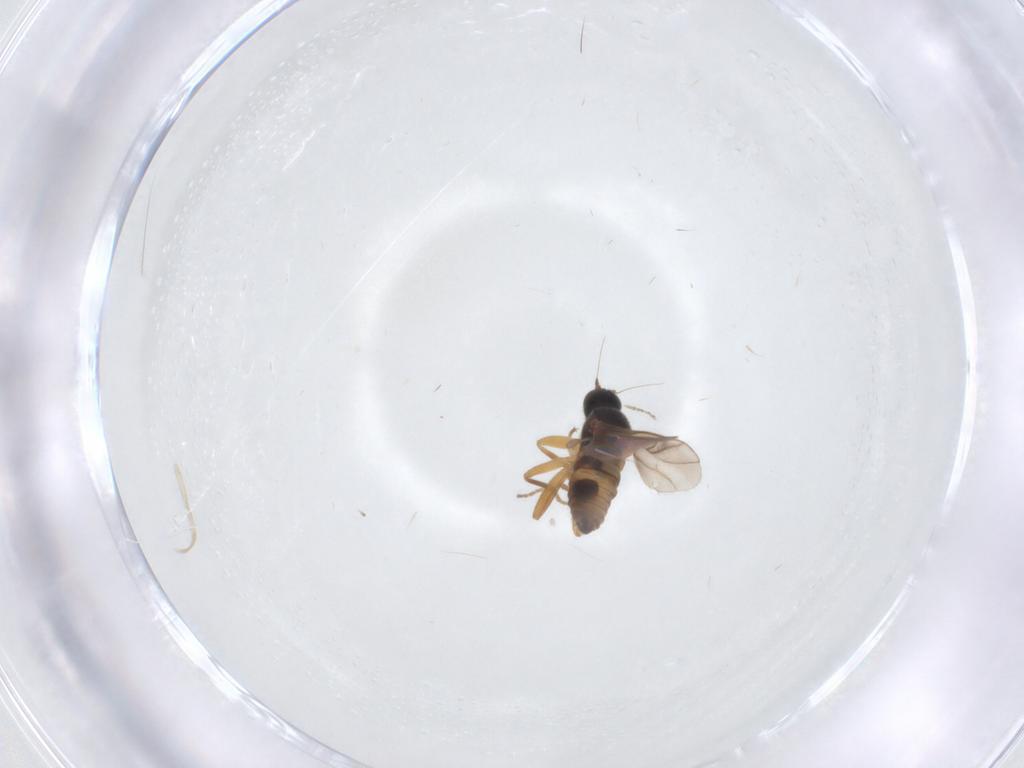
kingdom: Animalia
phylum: Arthropoda
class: Insecta
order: Diptera
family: Hybotidae
